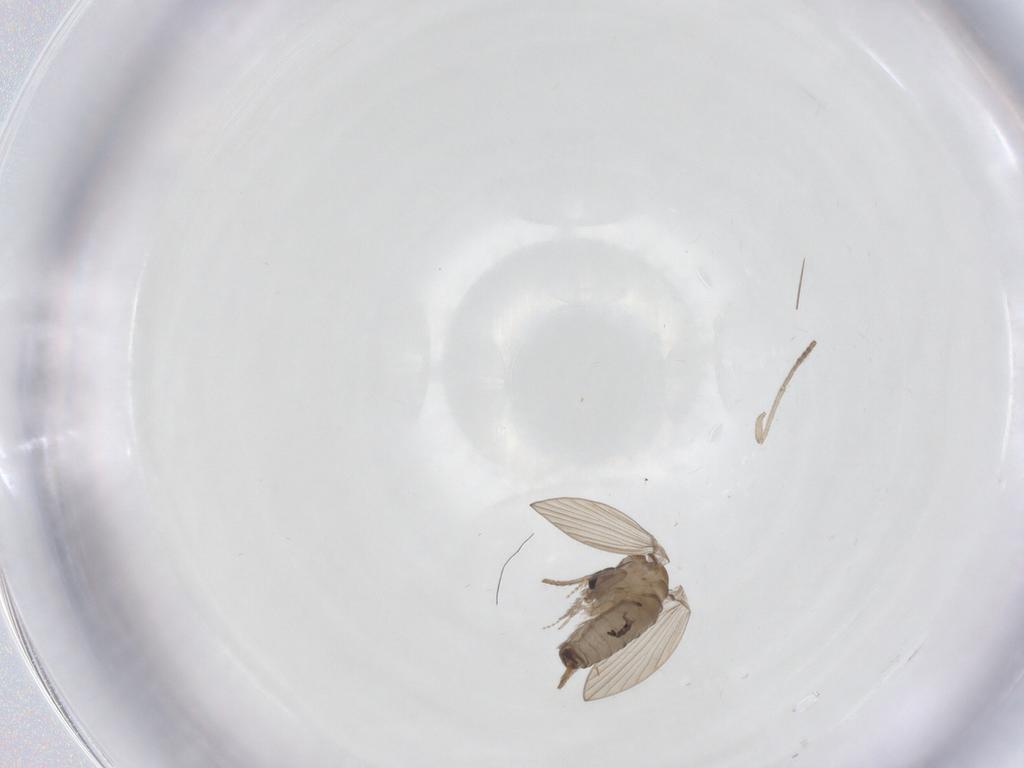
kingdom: Animalia
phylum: Arthropoda
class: Insecta
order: Diptera
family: Psychodidae
